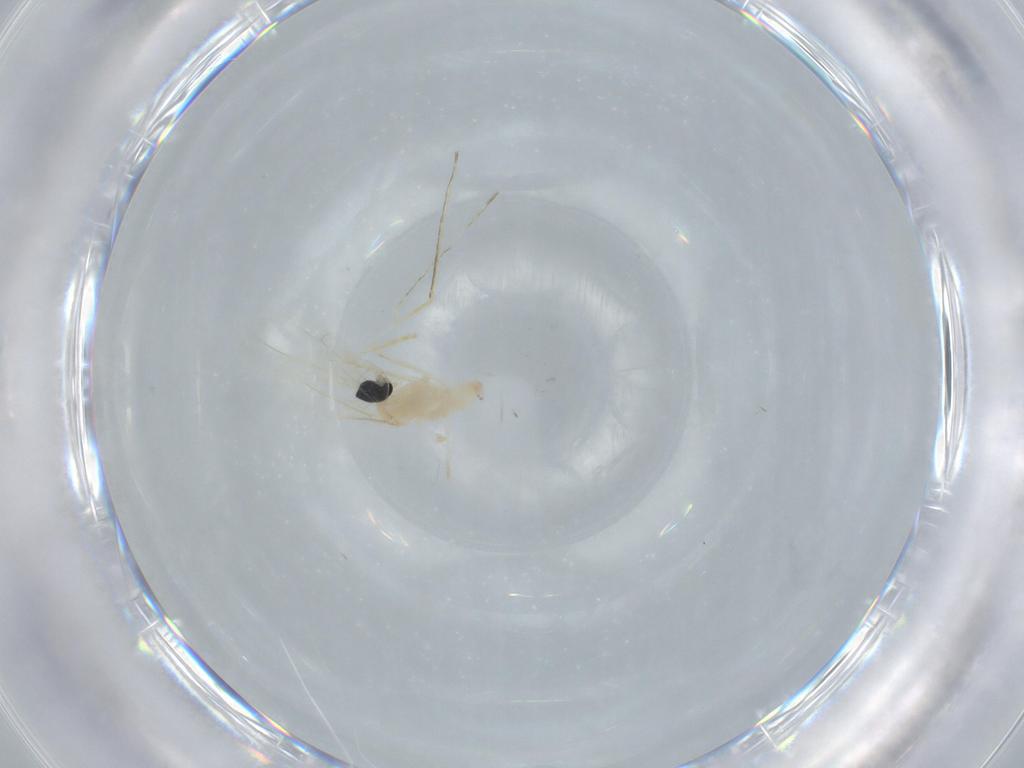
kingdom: Animalia
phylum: Arthropoda
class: Insecta
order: Diptera
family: Cecidomyiidae
